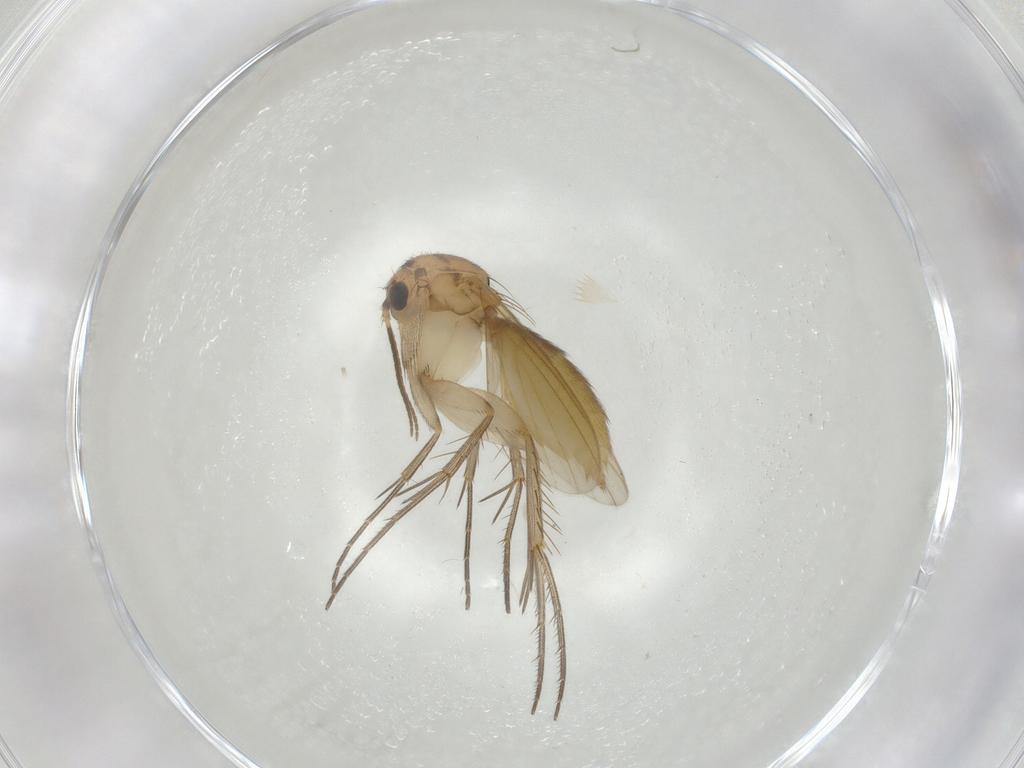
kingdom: Animalia
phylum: Arthropoda
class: Insecta
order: Diptera
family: Mycetophilidae
